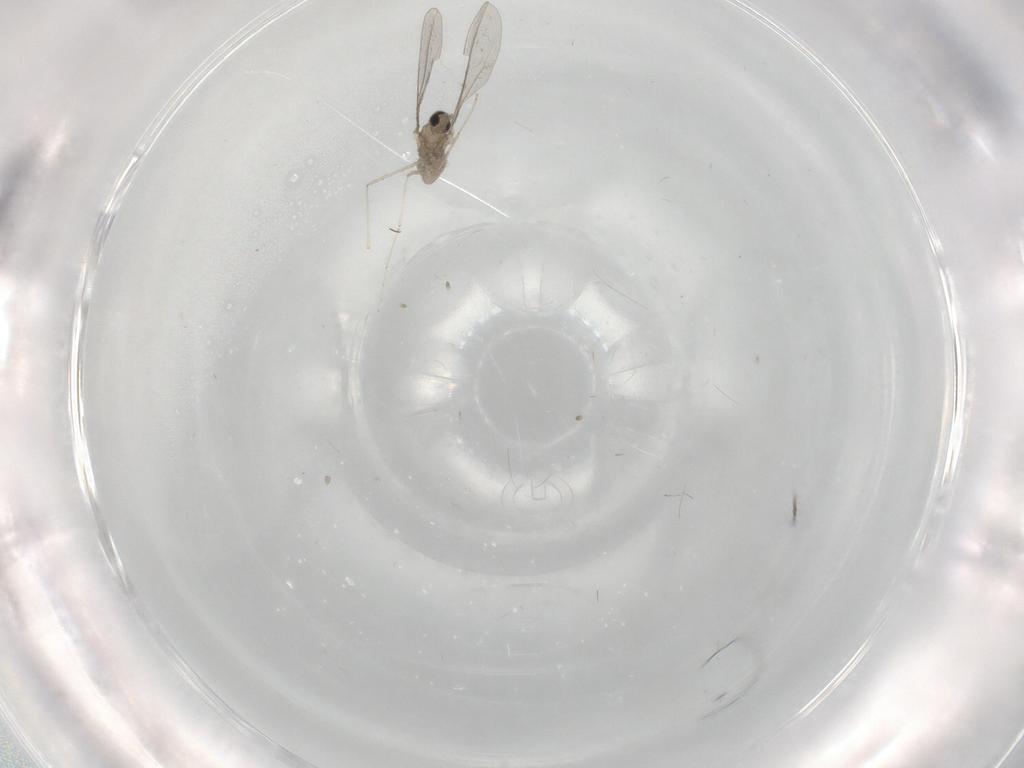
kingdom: Animalia
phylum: Arthropoda
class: Insecta
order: Diptera
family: Cecidomyiidae
